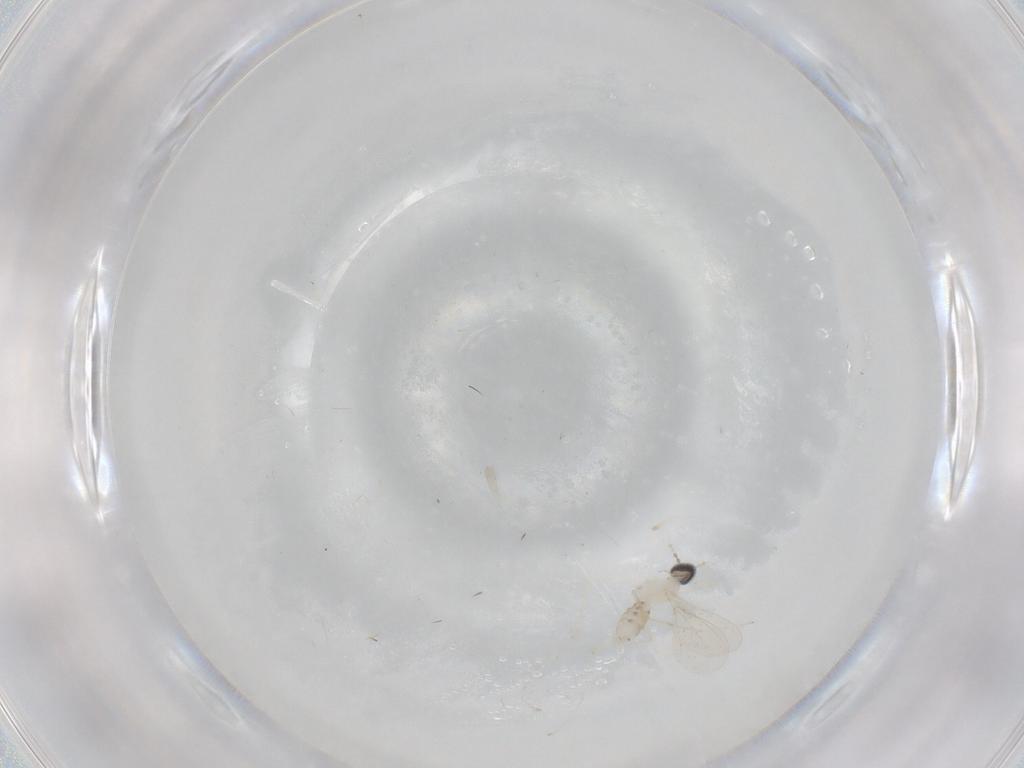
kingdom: Animalia
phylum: Arthropoda
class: Insecta
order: Diptera
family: Cecidomyiidae
